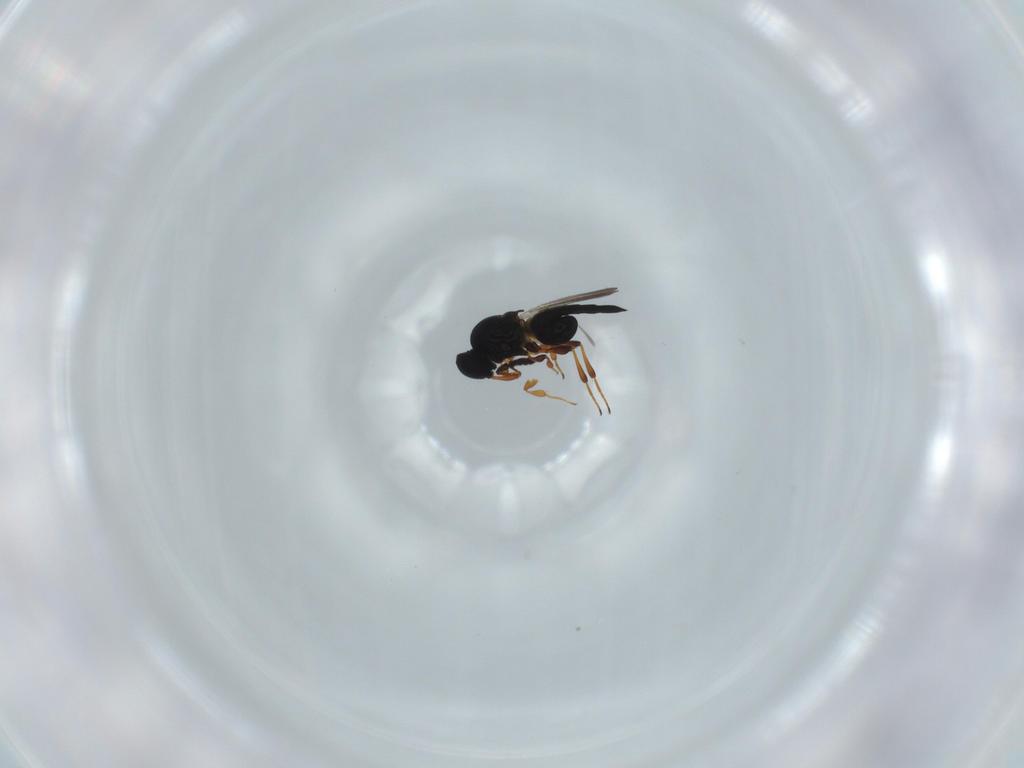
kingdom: Animalia
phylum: Arthropoda
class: Insecta
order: Hymenoptera
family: Platygastridae
